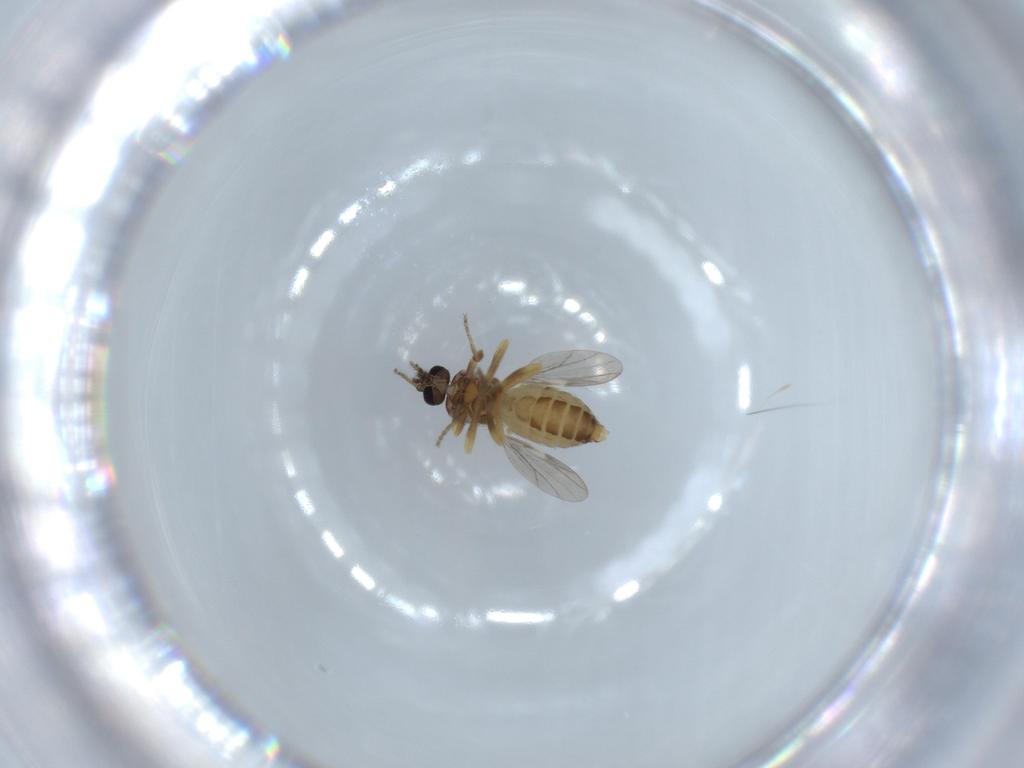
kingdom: Animalia
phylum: Arthropoda
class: Insecta
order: Diptera
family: Ceratopogonidae
